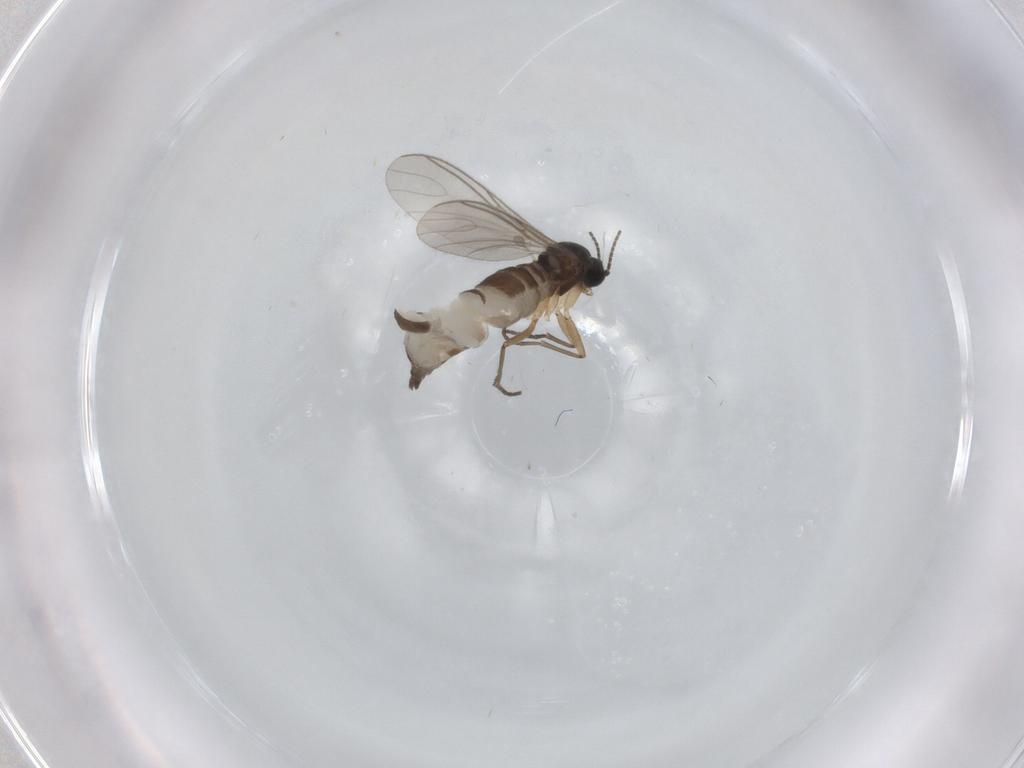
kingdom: Animalia
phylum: Arthropoda
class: Insecta
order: Diptera
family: Sciaridae
